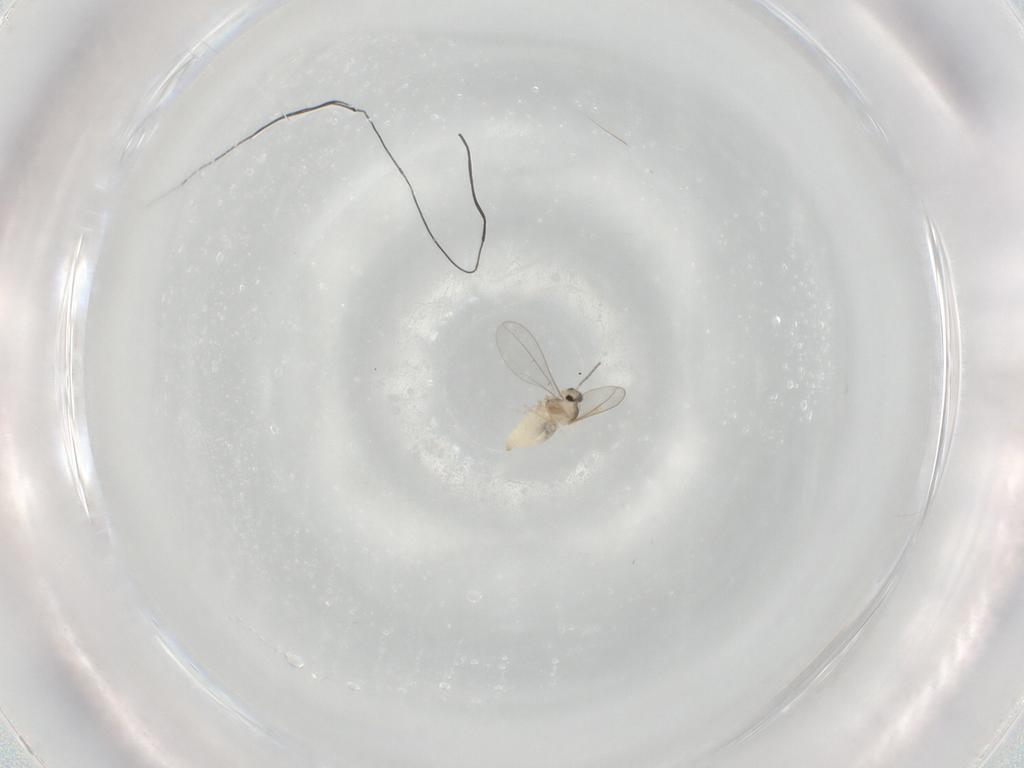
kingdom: Animalia
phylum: Arthropoda
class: Insecta
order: Diptera
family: Cecidomyiidae
